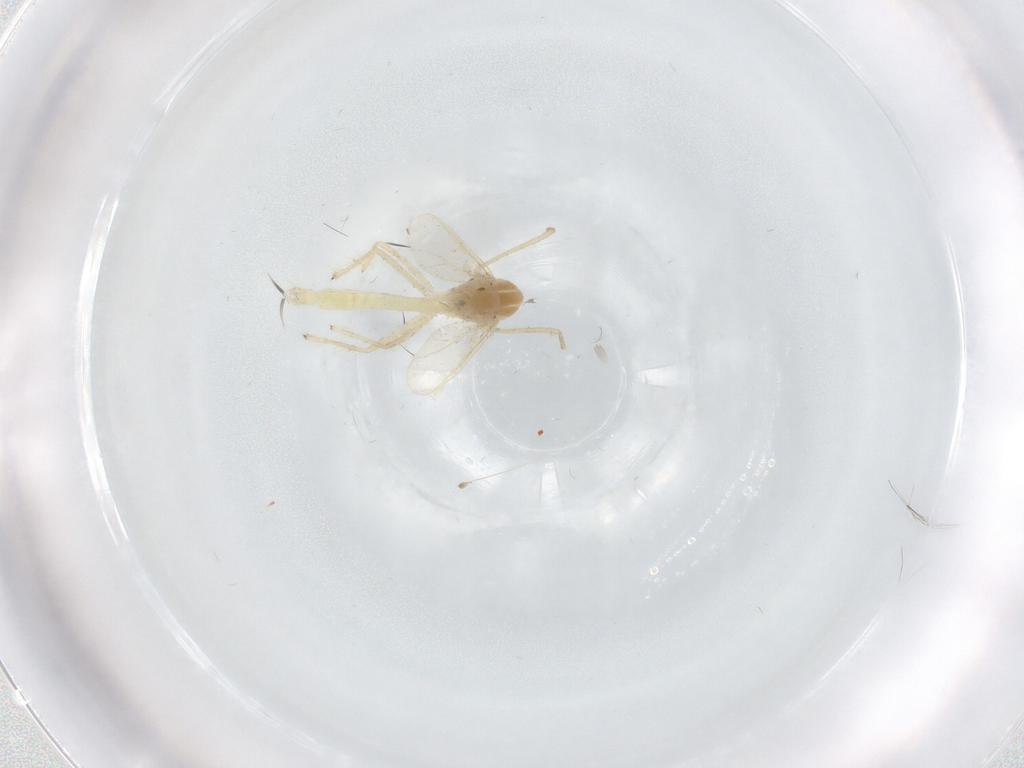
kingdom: Animalia
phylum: Arthropoda
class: Insecta
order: Diptera
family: Chironomidae
